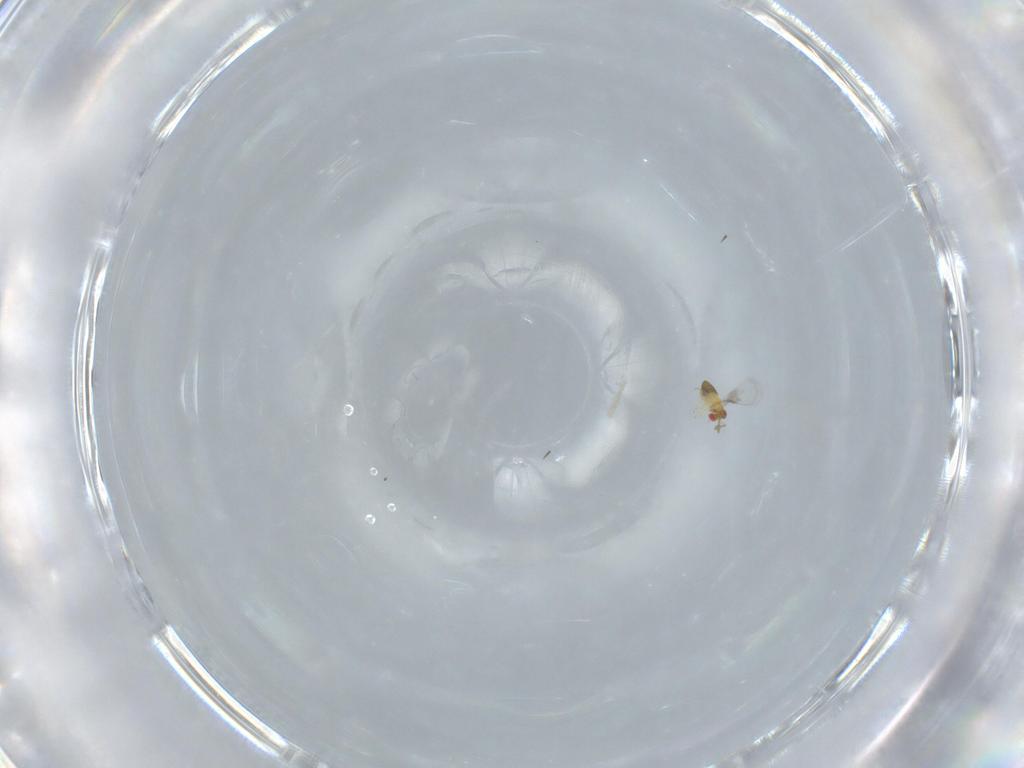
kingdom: Animalia
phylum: Arthropoda
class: Insecta
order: Hymenoptera
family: Trichogrammatidae
